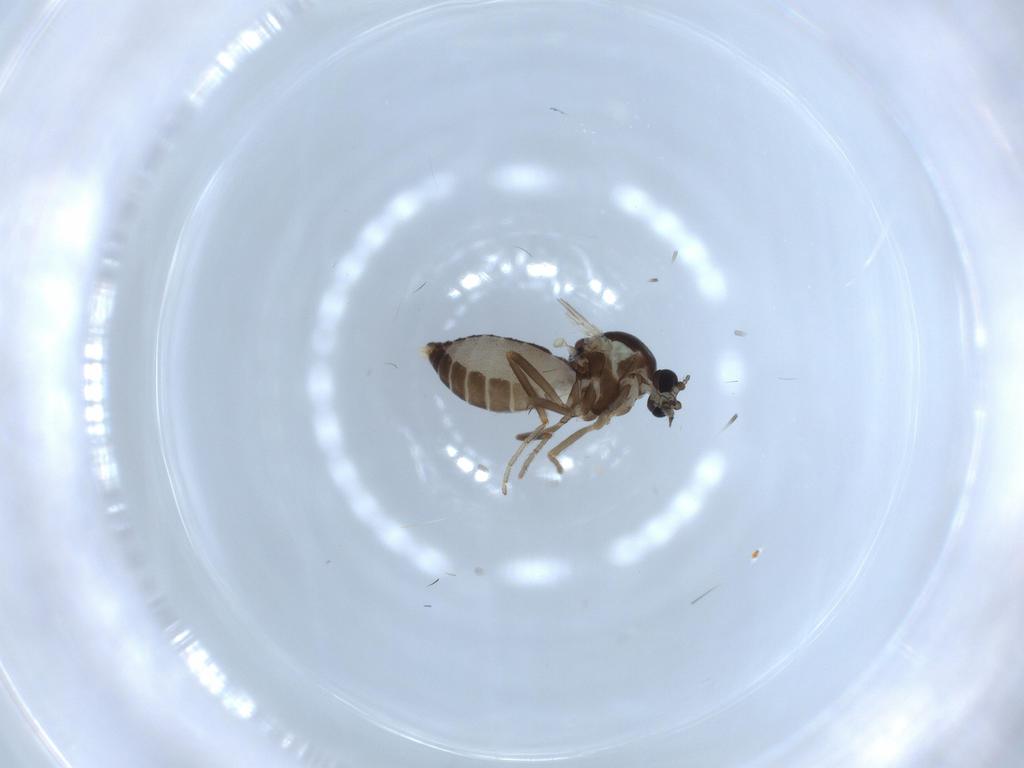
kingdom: Animalia
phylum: Arthropoda
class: Insecta
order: Diptera
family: Ceratopogonidae
